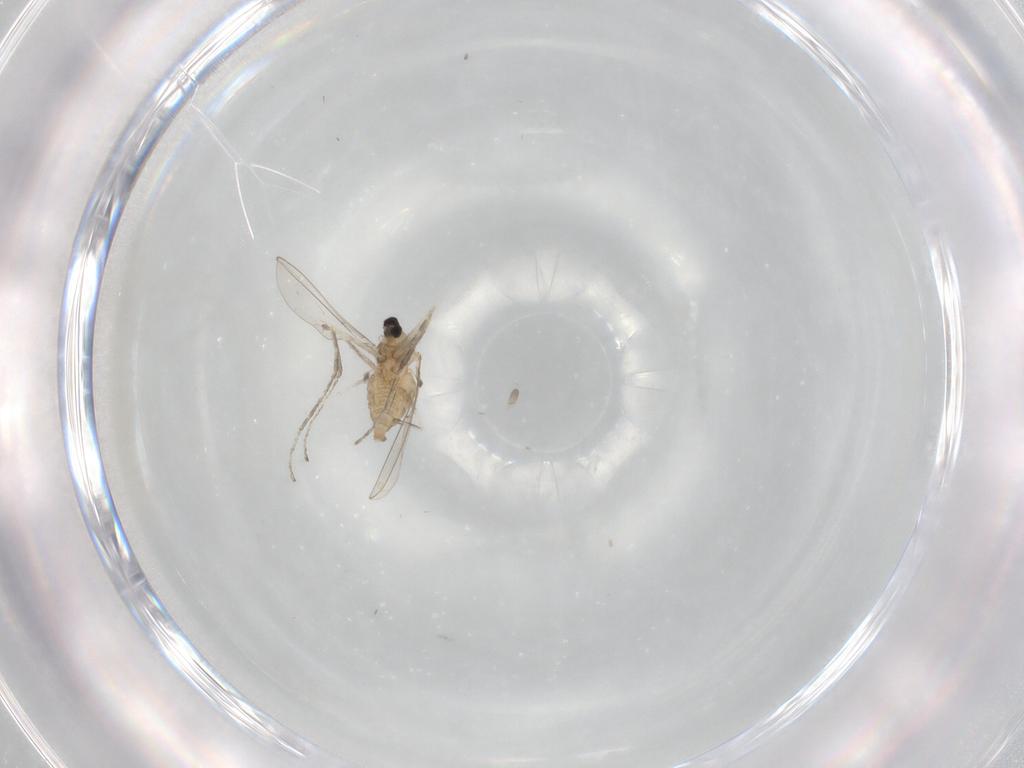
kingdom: Animalia
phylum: Arthropoda
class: Insecta
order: Diptera
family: Cecidomyiidae
